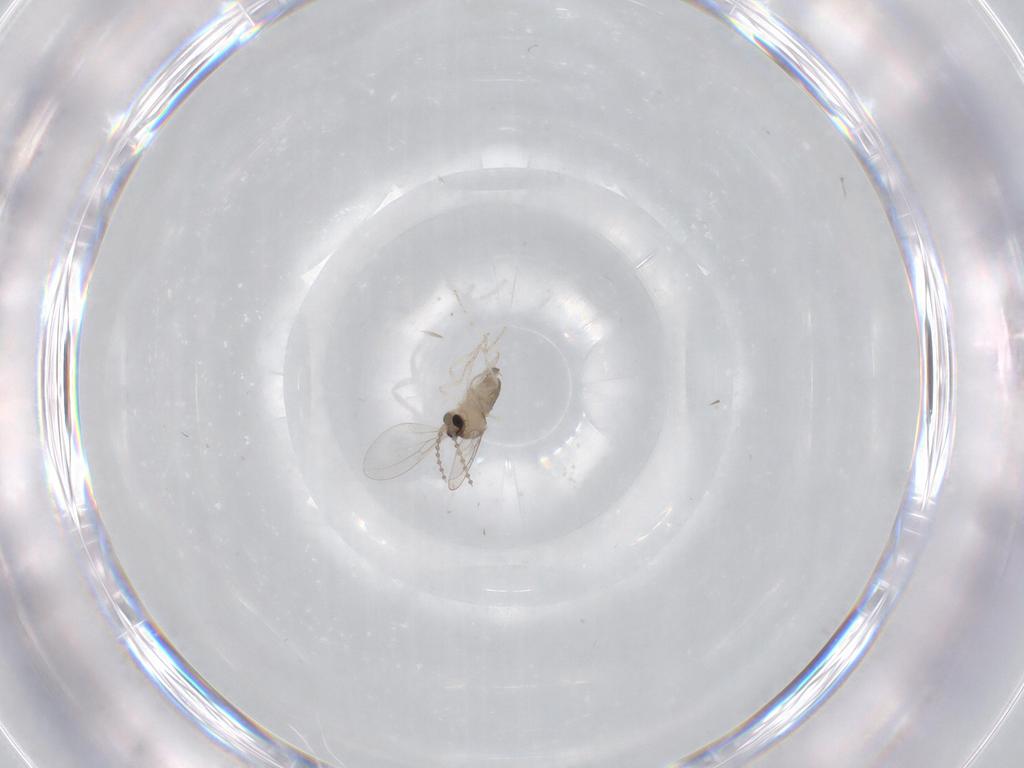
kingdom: Animalia
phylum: Arthropoda
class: Insecta
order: Diptera
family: Cecidomyiidae
